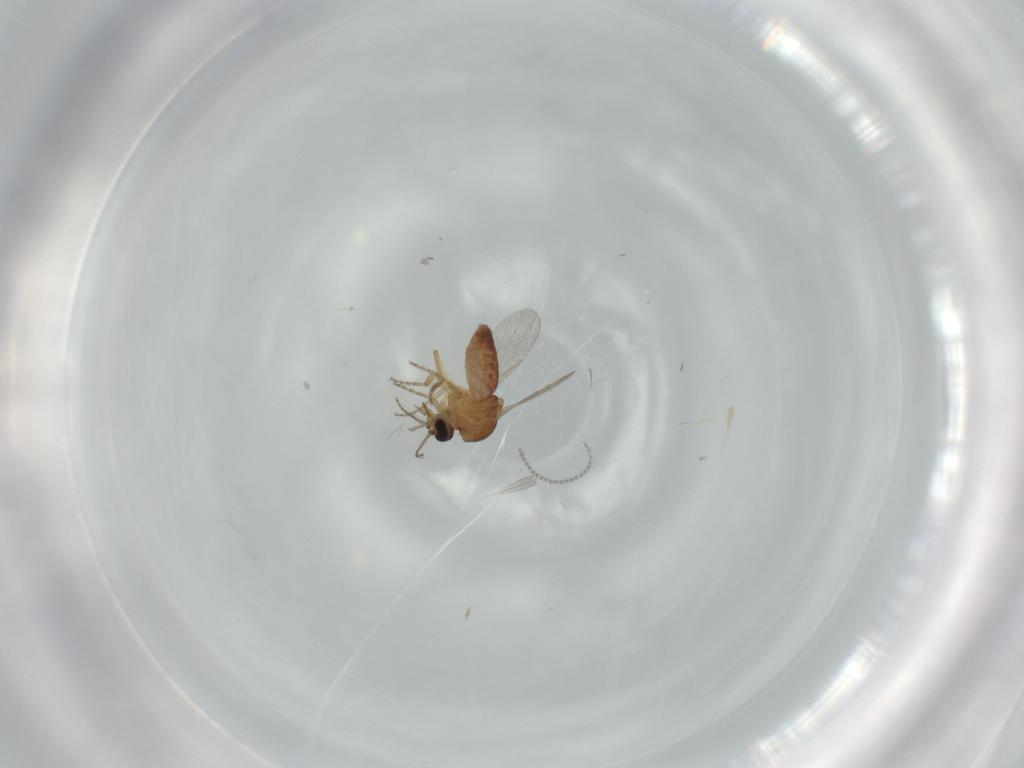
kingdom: Animalia
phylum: Arthropoda
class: Insecta
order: Diptera
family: Ceratopogonidae
